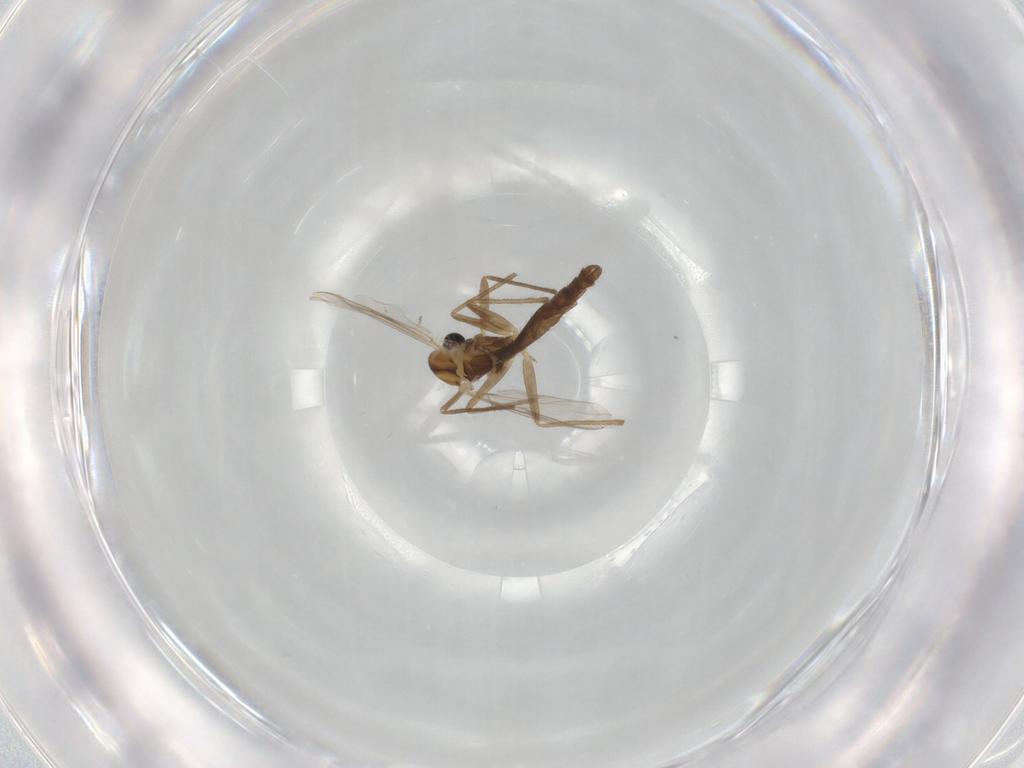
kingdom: Animalia
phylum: Arthropoda
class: Insecta
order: Diptera
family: Chironomidae
